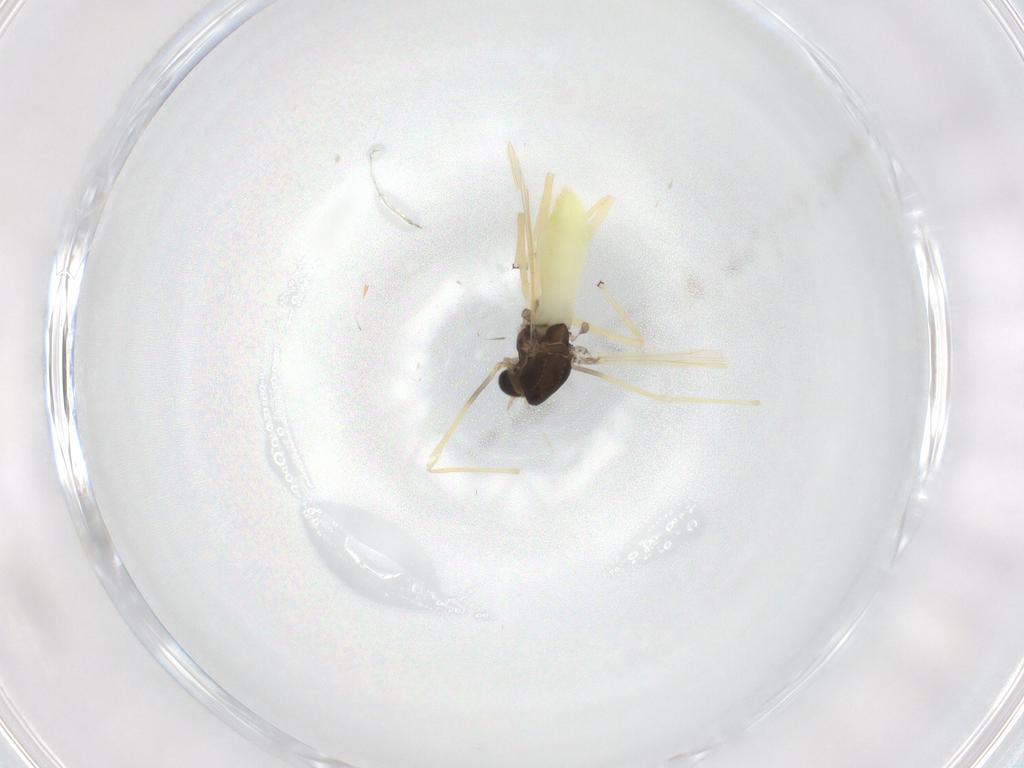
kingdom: Animalia
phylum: Arthropoda
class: Insecta
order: Diptera
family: Chironomidae
